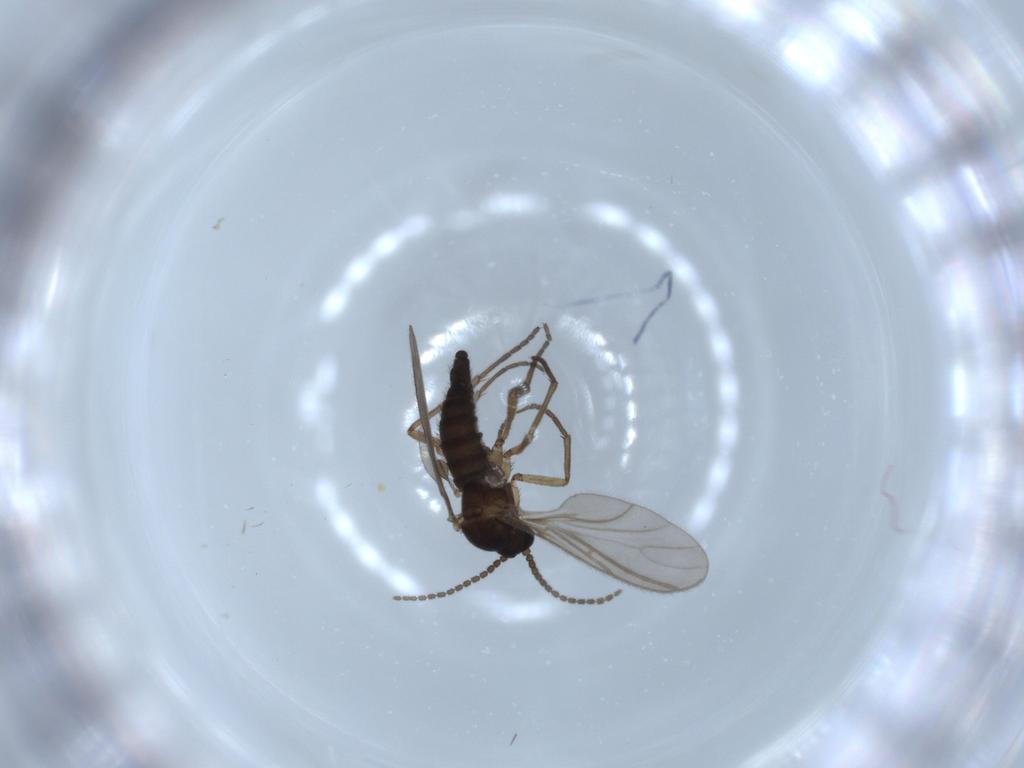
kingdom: Animalia
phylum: Arthropoda
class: Insecta
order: Diptera
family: Sciaridae
